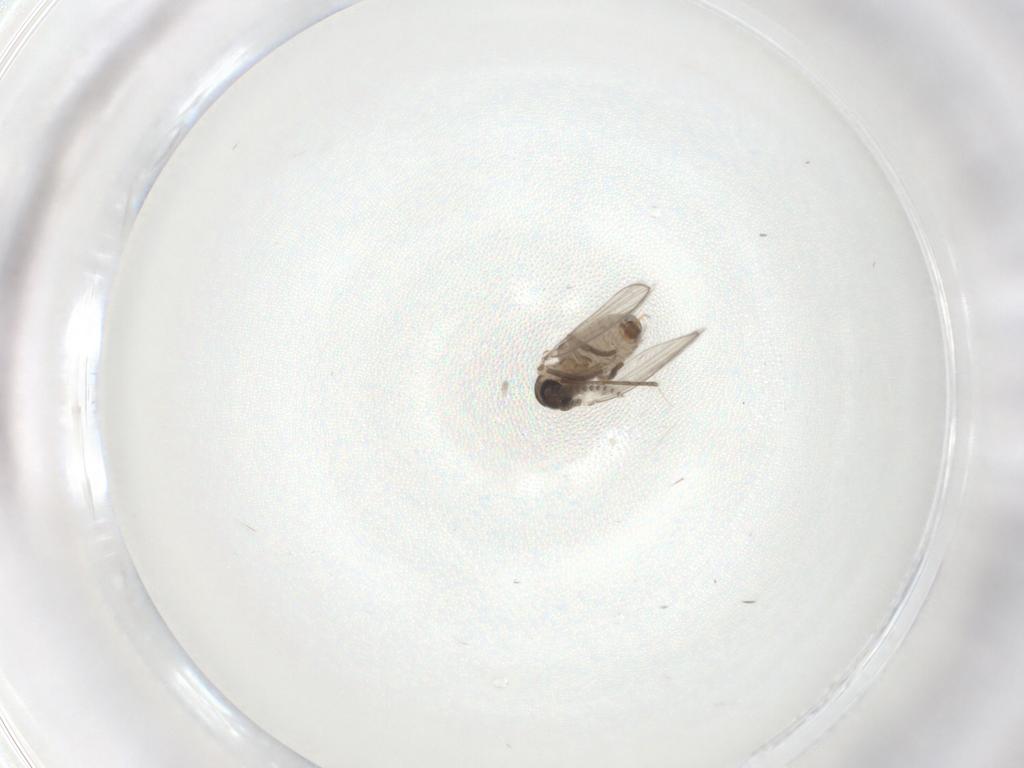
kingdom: Animalia
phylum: Arthropoda
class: Insecta
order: Diptera
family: Psychodidae
